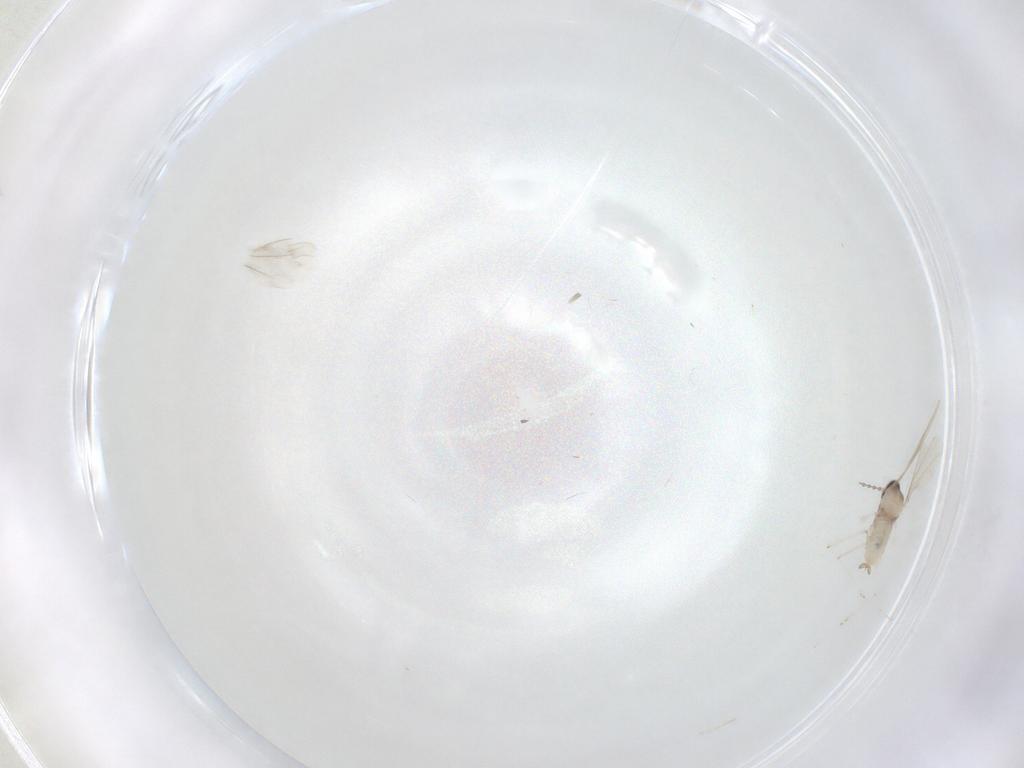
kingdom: Animalia
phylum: Arthropoda
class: Insecta
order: Diptera
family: Cecidomyiidae
